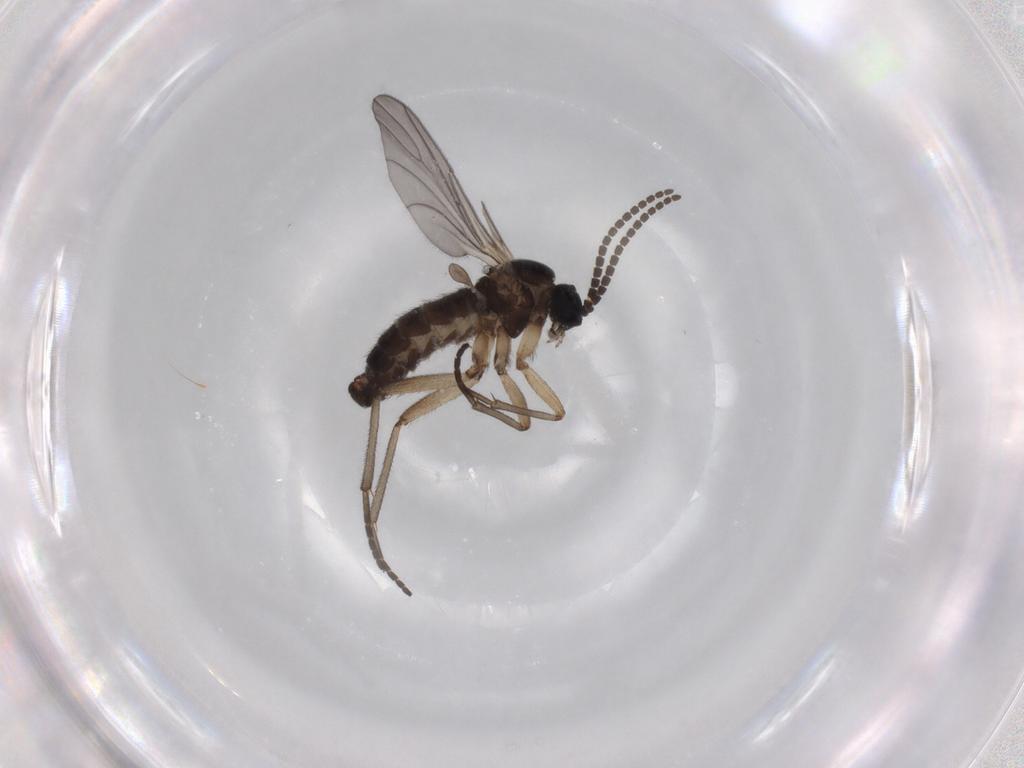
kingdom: Animalia
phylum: Arthropoda
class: Insecta
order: Diptera
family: Sciaridae
